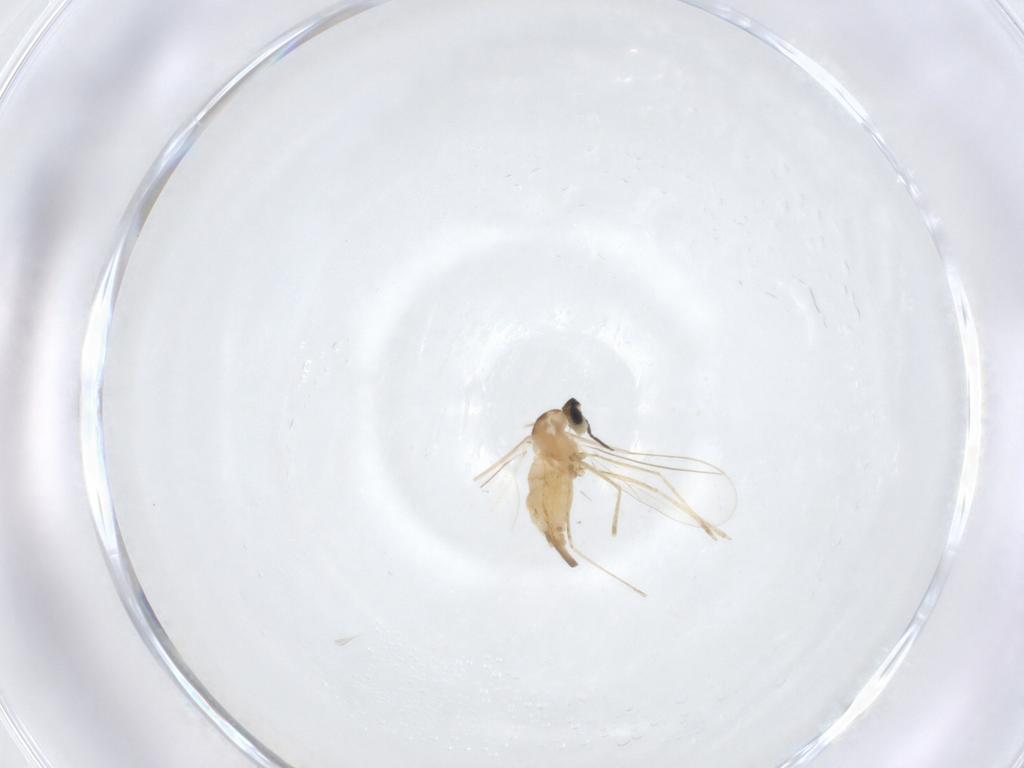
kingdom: Animalia
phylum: Arthropoda
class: Insecta
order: Diptera
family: Cecidomyiidae
